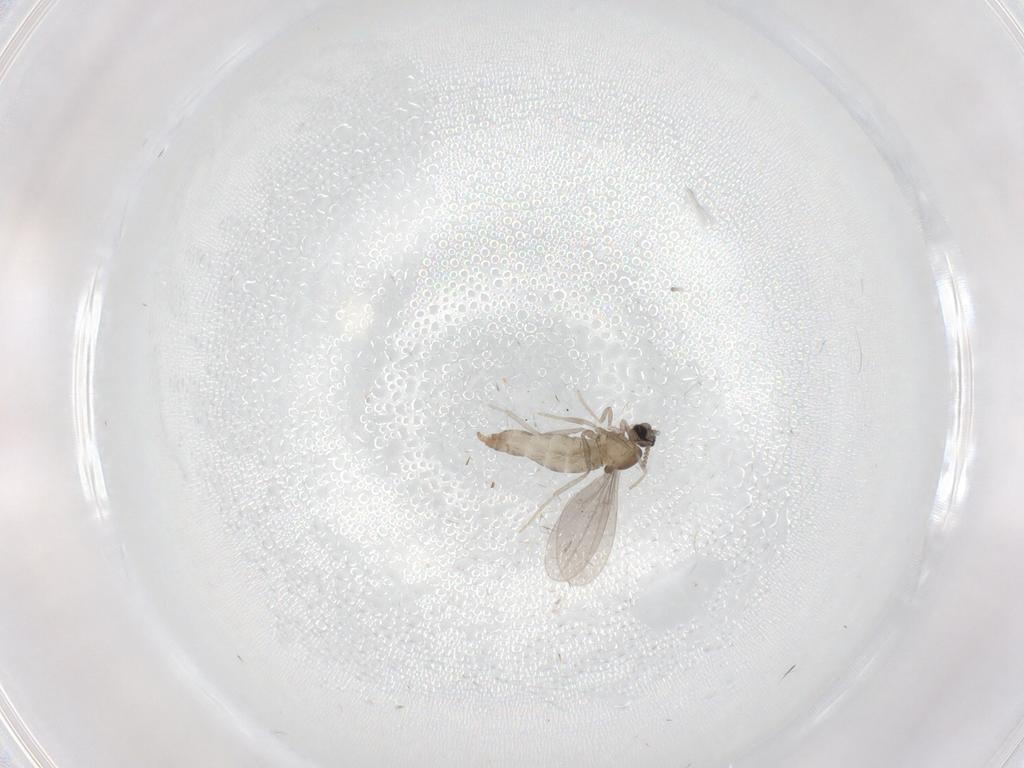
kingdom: Animalia
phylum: Arthropoda
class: Insecta
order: Diptera
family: Cecidomyiidae
